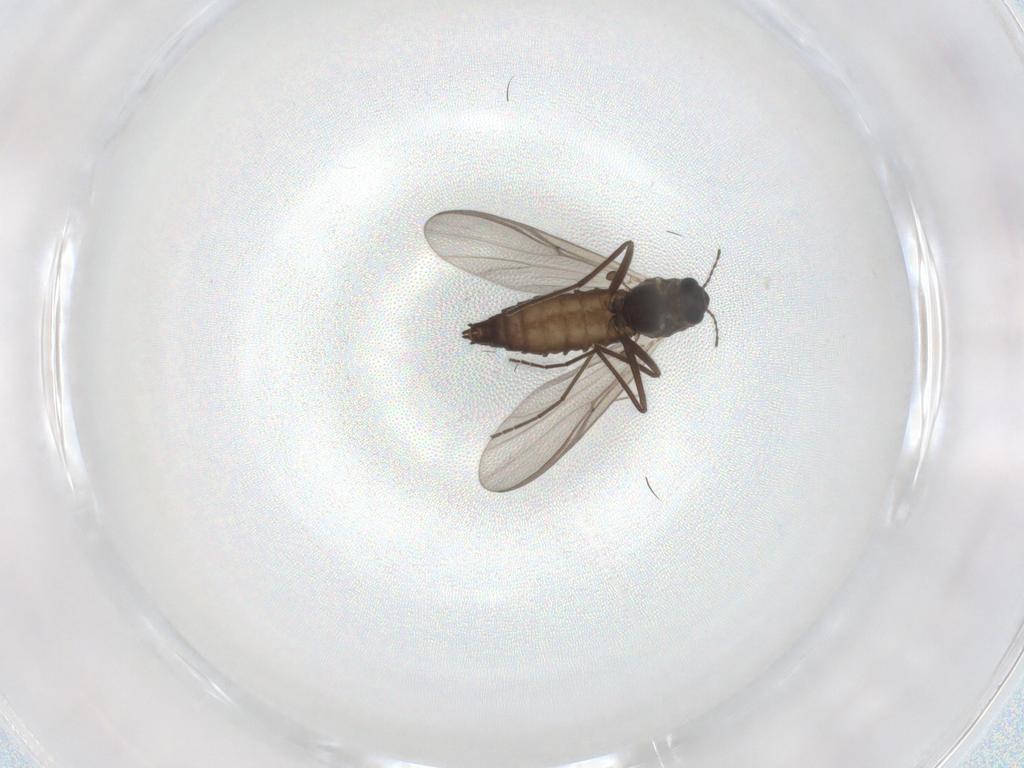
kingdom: Animalia
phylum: Arthropoda
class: Insecta
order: Diptera
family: Chironomidae
